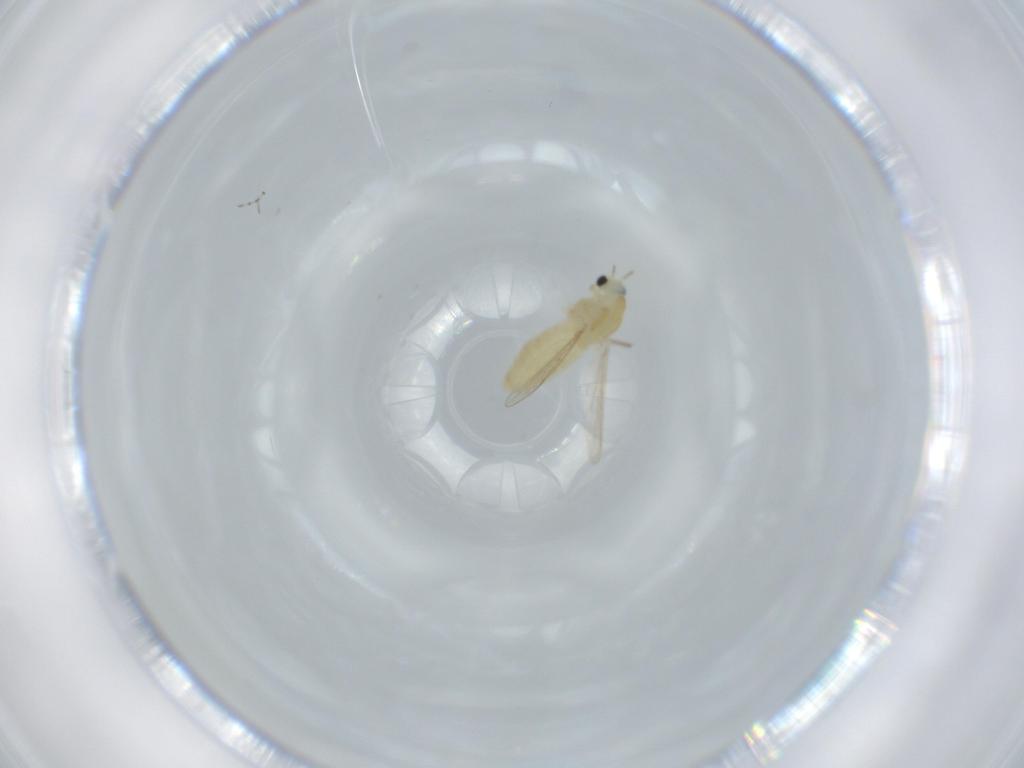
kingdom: Animalia
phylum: Arthropoda
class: Insecta
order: Diptera
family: Chironomidae
